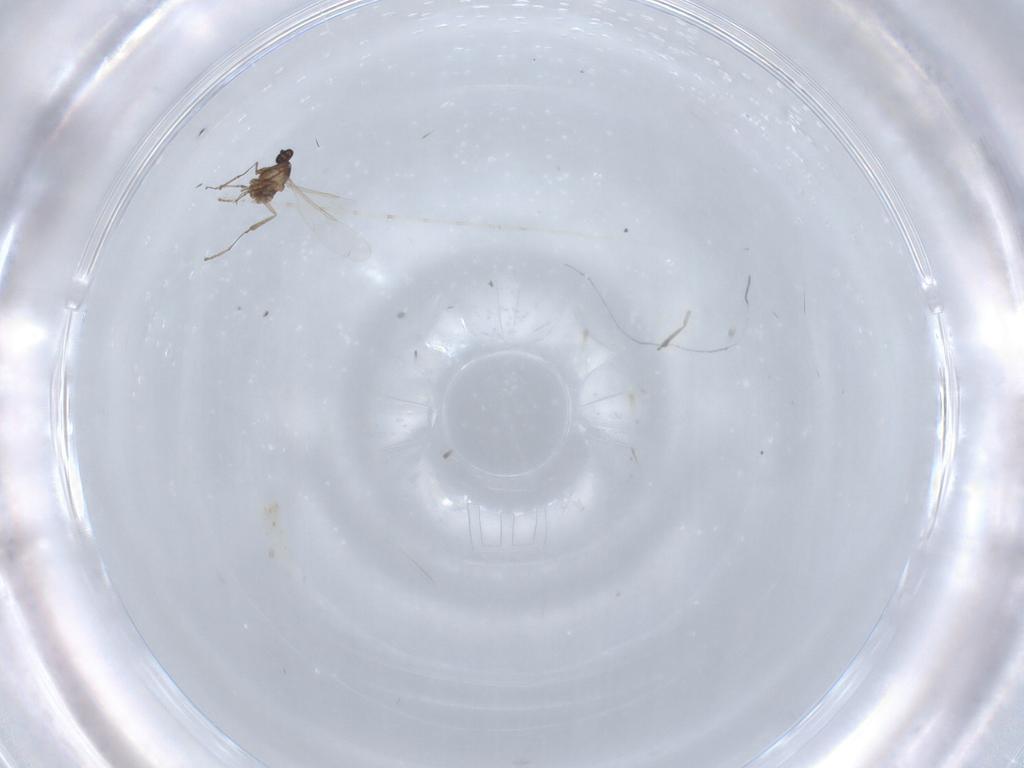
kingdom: Animalia
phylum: Arthropoda
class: Insecta
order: Diptera
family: Cecidomyiidae
